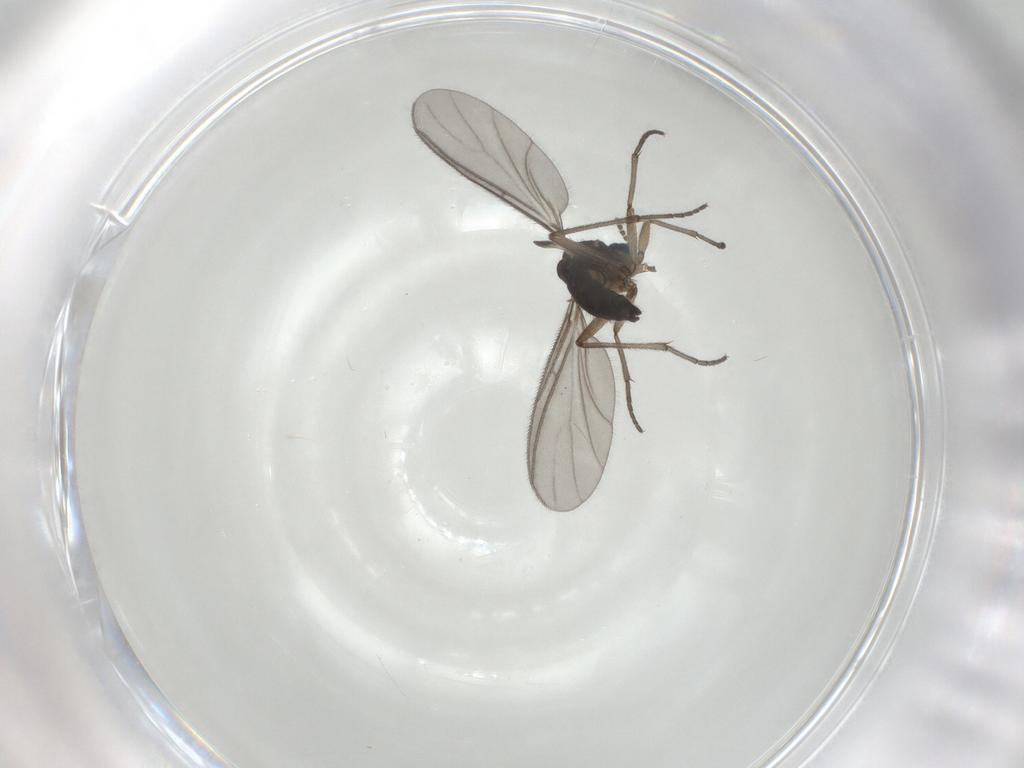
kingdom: Animalia
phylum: Arthropoda
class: Insecta
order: Diptera
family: Sciaridae
